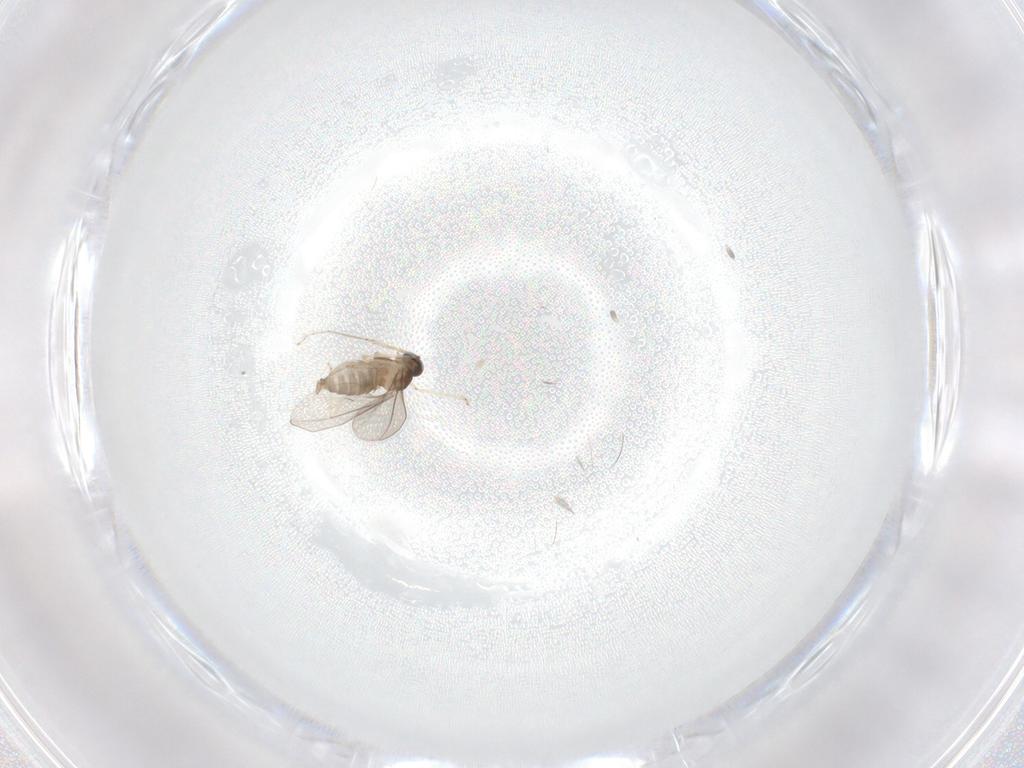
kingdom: Animalia
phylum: Arthropoda
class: Insecta
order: Diptera
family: Sciaridae
